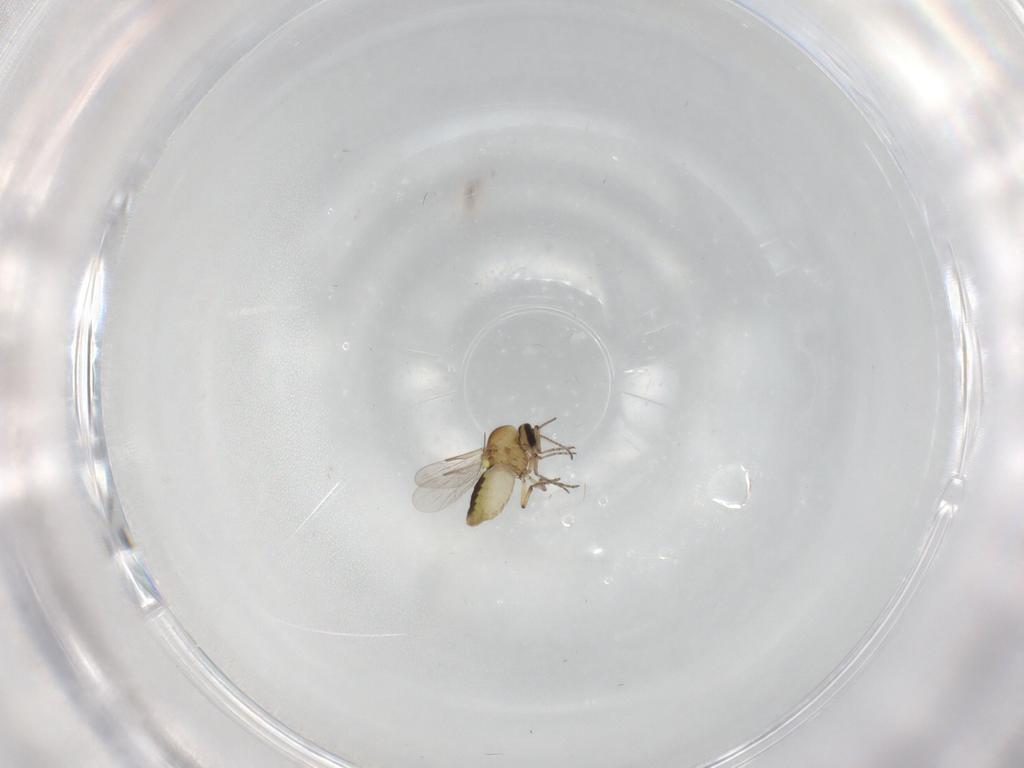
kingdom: Animalia
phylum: Arthropoda
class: Insecta
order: Diptera
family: Ceratopogonidae
